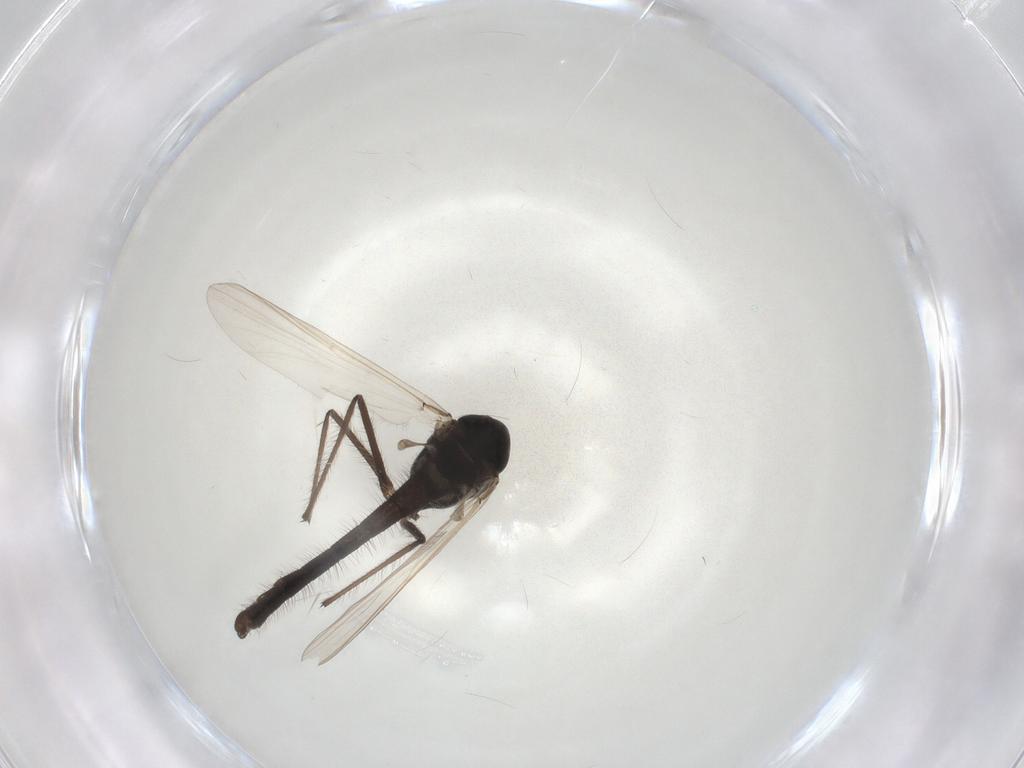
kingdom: Animalia
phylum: Arthropoda
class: Insecta
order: Diptera
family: Chironomidae
